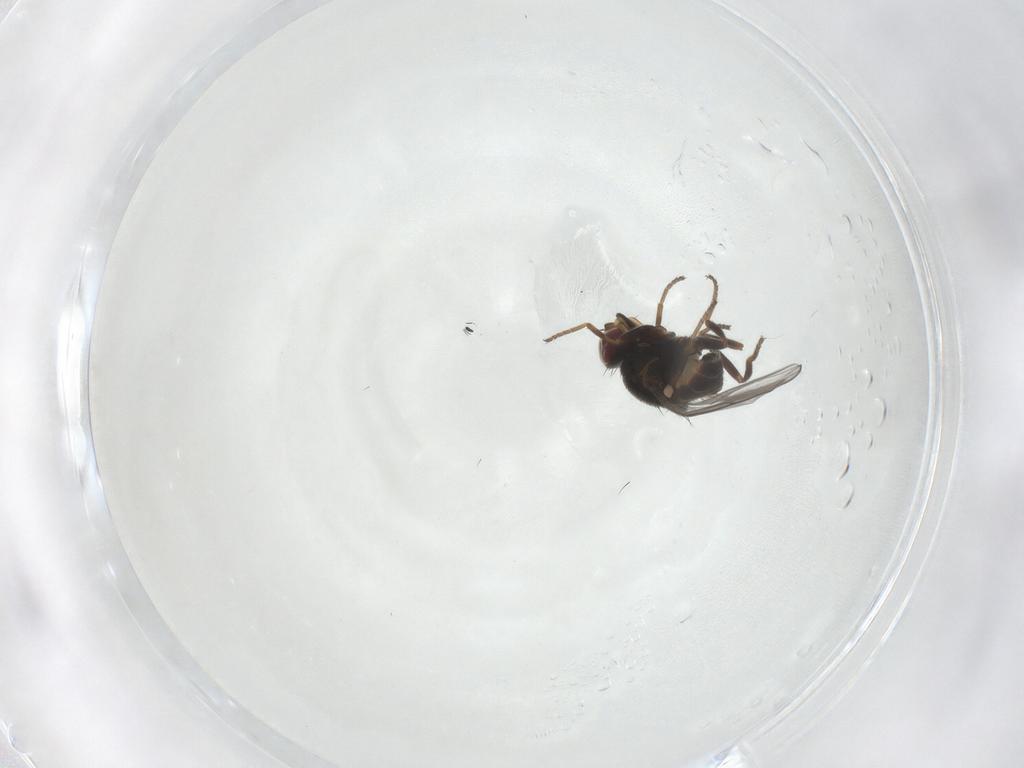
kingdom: Animalia
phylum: Arthropoda
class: Insecta
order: Diptera
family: Chloropidae
